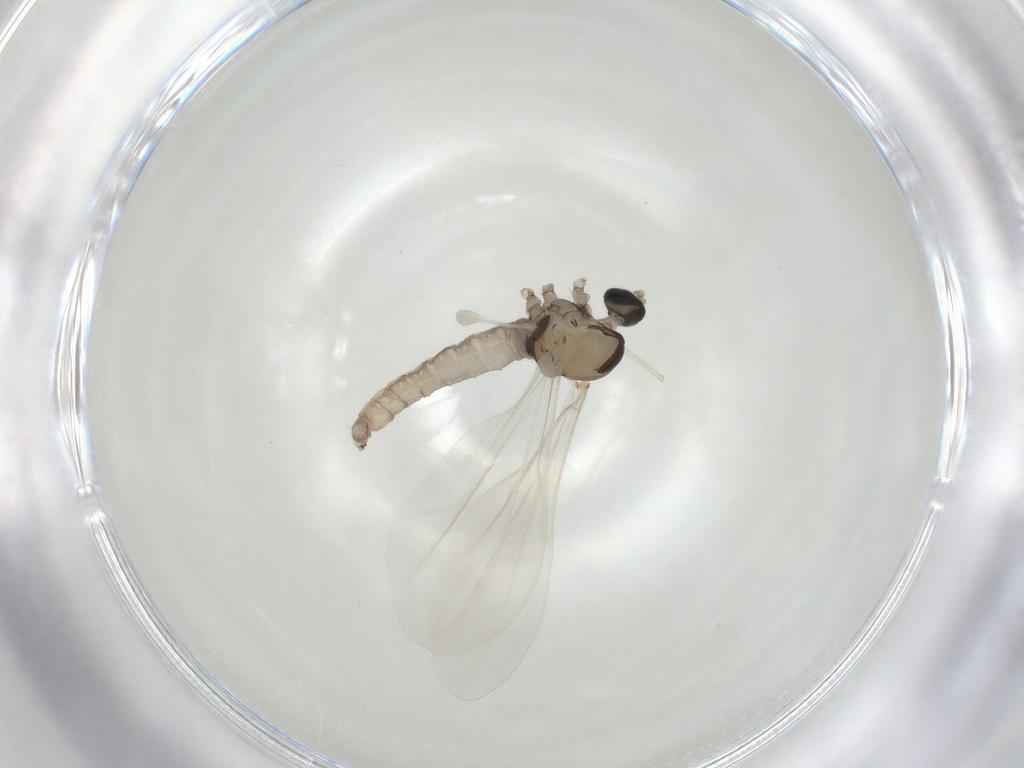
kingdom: Animalia
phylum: Arthropoda
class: Insecta
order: Diptera
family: Cecidomyiidae
